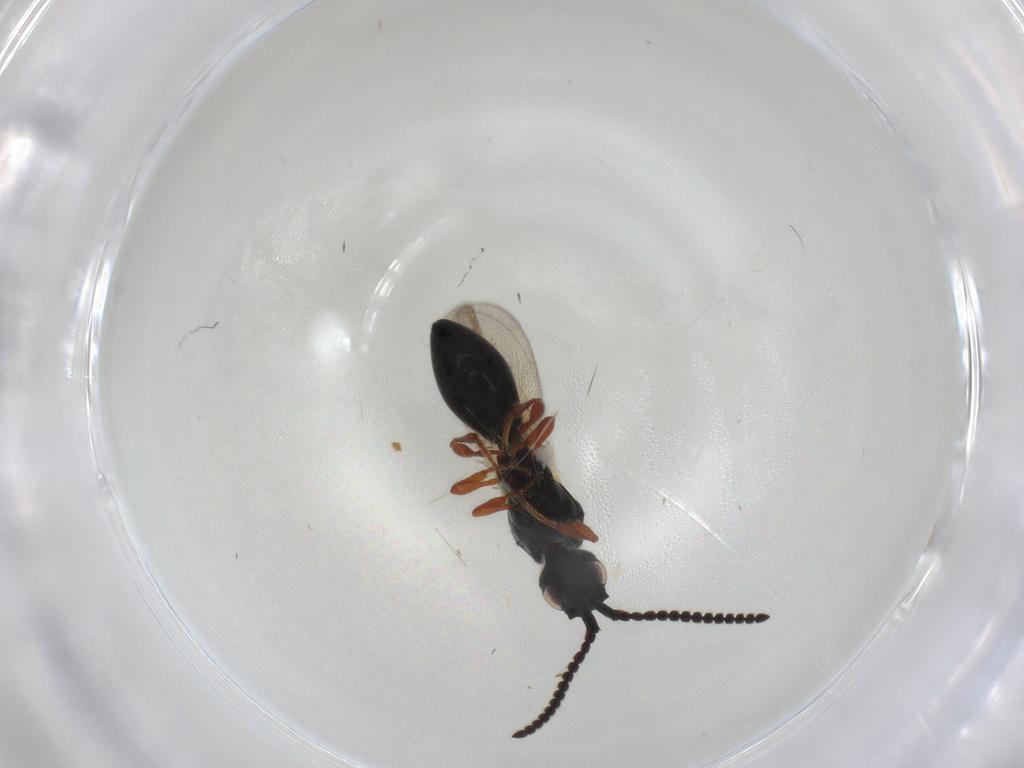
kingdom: Animalia
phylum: Arthropoda
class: Insecta
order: Hymenoptera
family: Diapriidae
